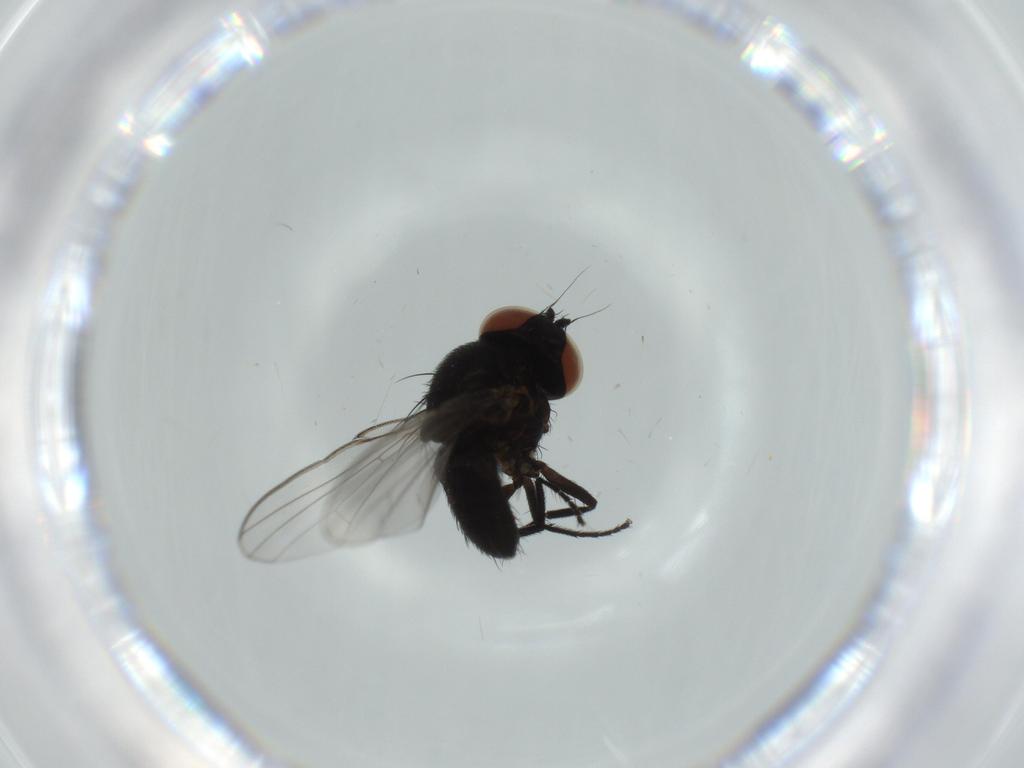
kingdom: Animalia
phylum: Arthropoda
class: Insecta
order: Diptera
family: Milichiidae
